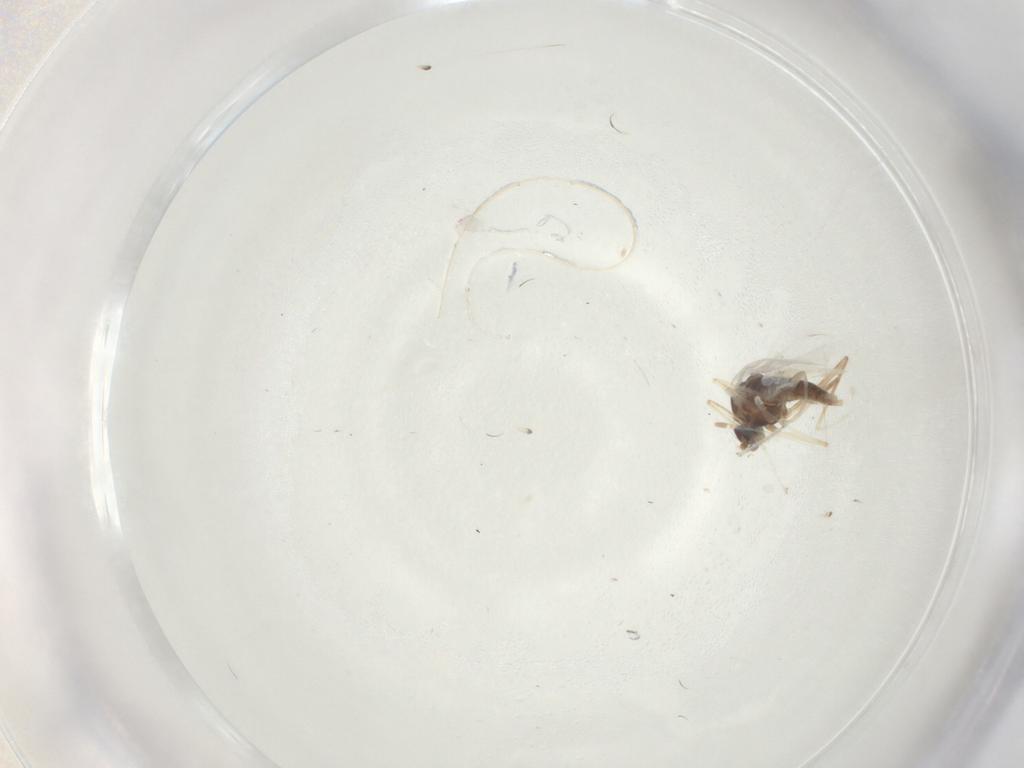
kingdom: Animalia
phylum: Arthropoda
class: Insecta
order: Diptera
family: Cecidomyiidae
